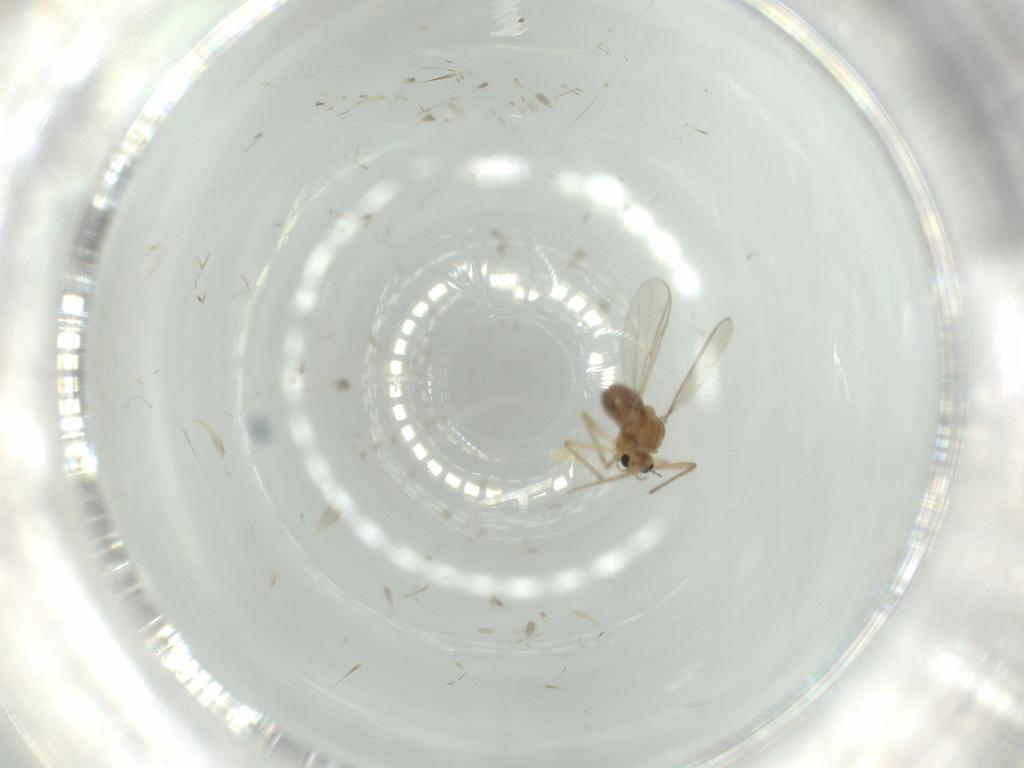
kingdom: Animalia
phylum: Arthropoda
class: Insecta
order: Diptera
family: Chironomidae
